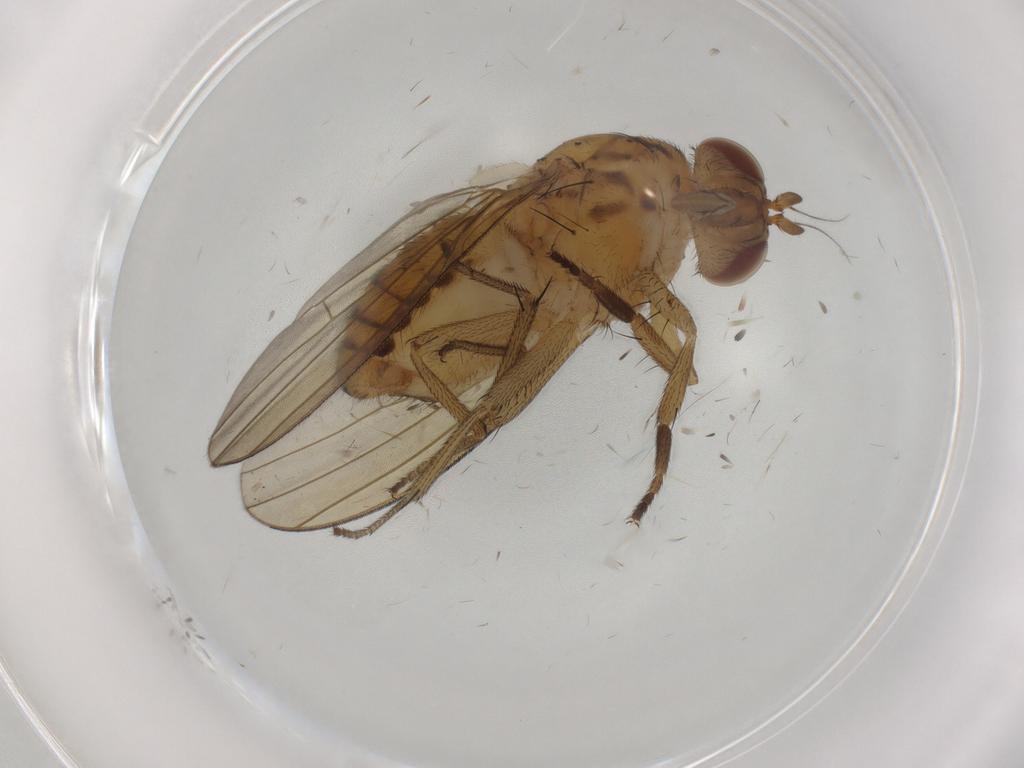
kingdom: Animalia
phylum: Arthropoda
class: Insecta
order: Diptera
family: Cecidomyiidae
